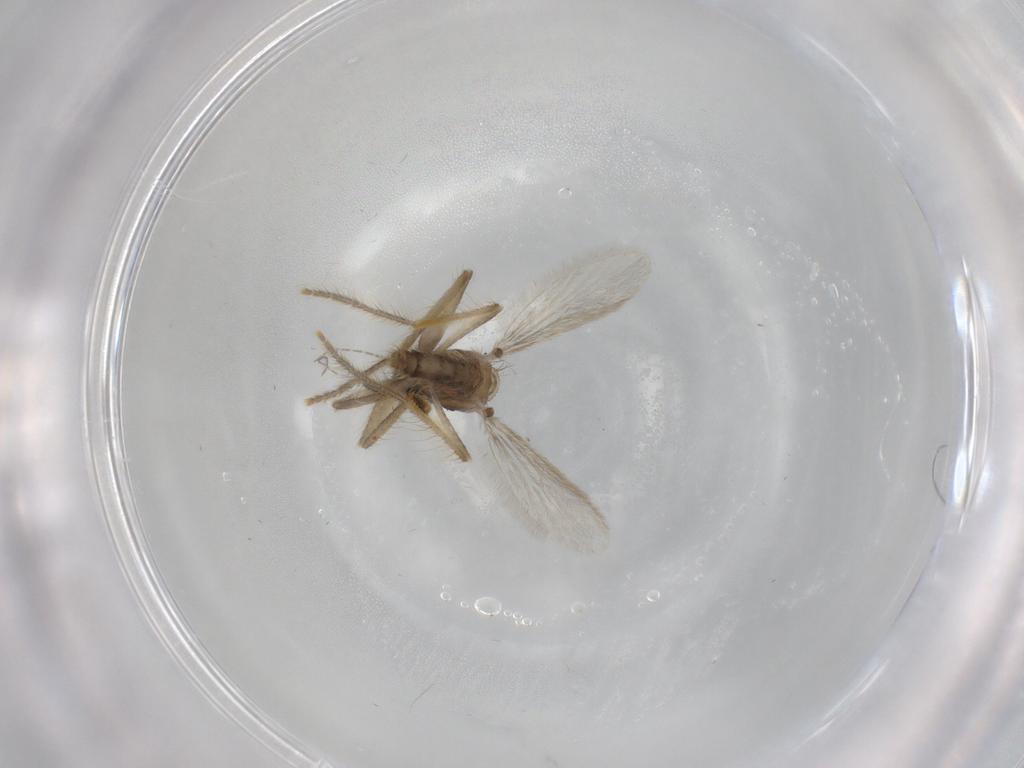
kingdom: Animalia
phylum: Arthropoda
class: Insecta
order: Diptera
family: Corethrellidae
